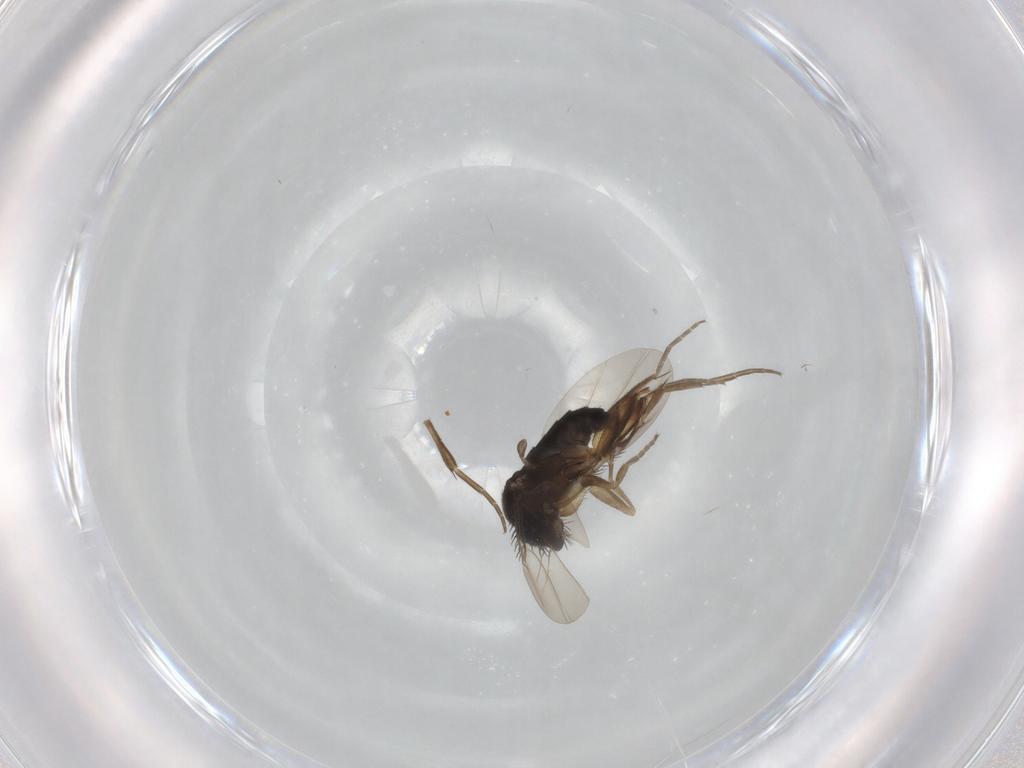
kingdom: Animalia
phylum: Arthropoda
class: Insecta
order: Diptera
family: Phoridae
